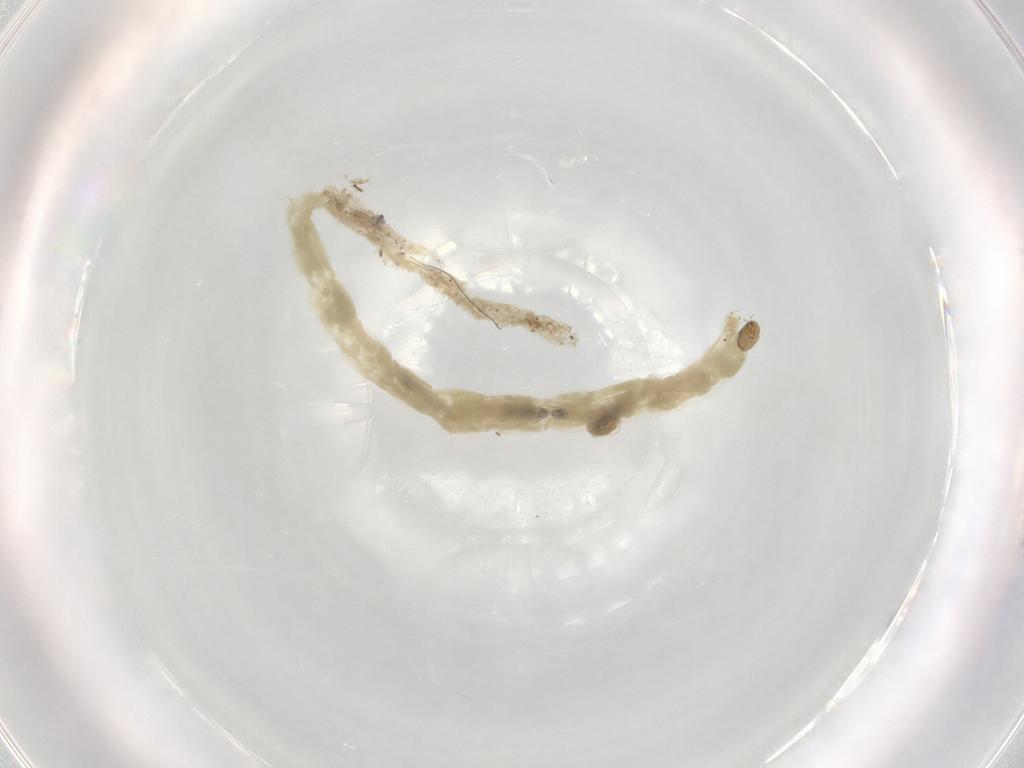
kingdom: Animalia
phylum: Arthropoda
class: Insecta
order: Diptera
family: Chironomidae
